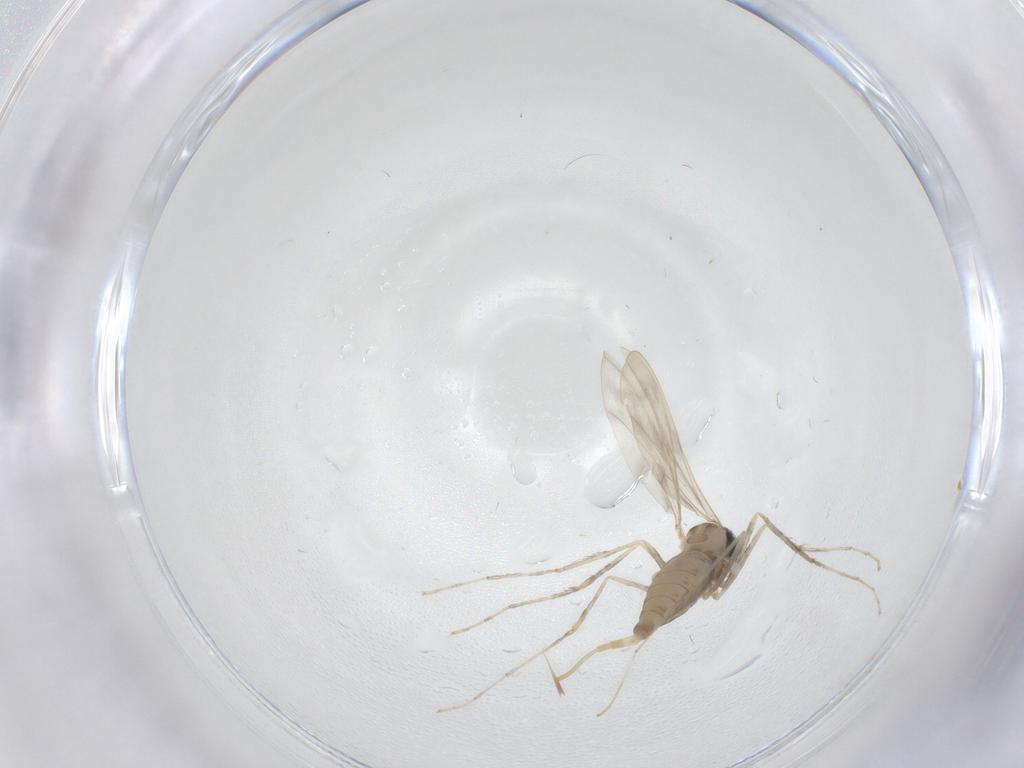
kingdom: Animalia
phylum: Arthropoda
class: Insecta
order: Diptera
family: Cecidomyiidae
